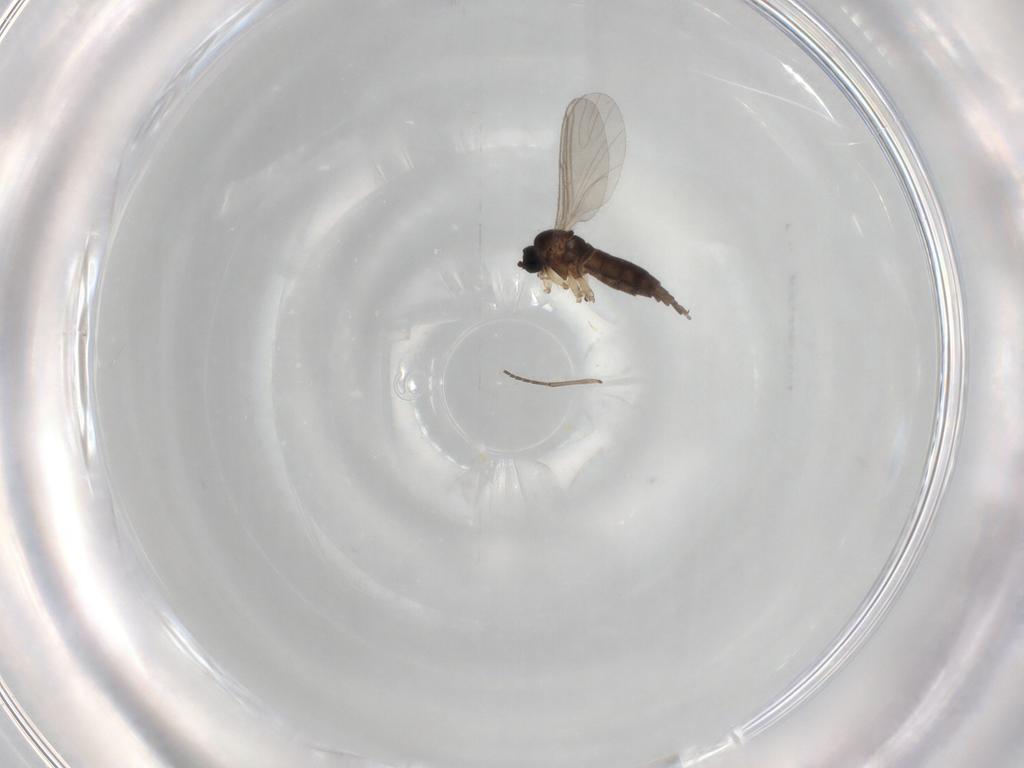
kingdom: Animalia
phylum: Arthropoda
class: Insecta
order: Diptera
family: Sciaridae
